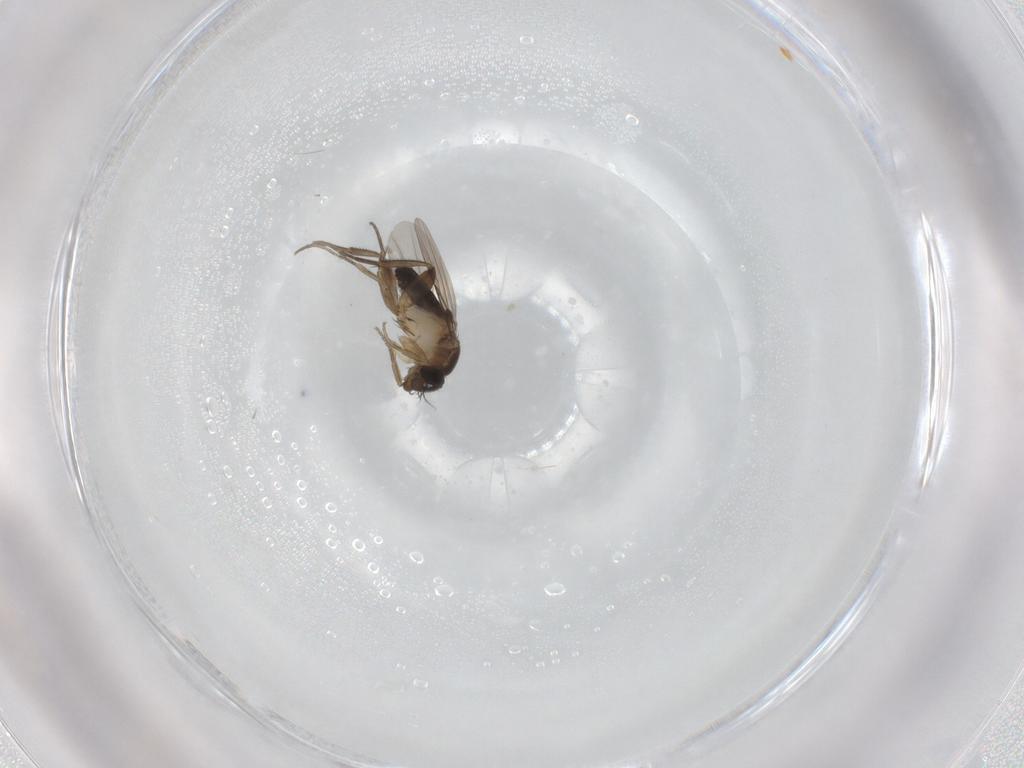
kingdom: Animalia
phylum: Arthropoda
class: Insecta
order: Diptera
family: Phoridae
